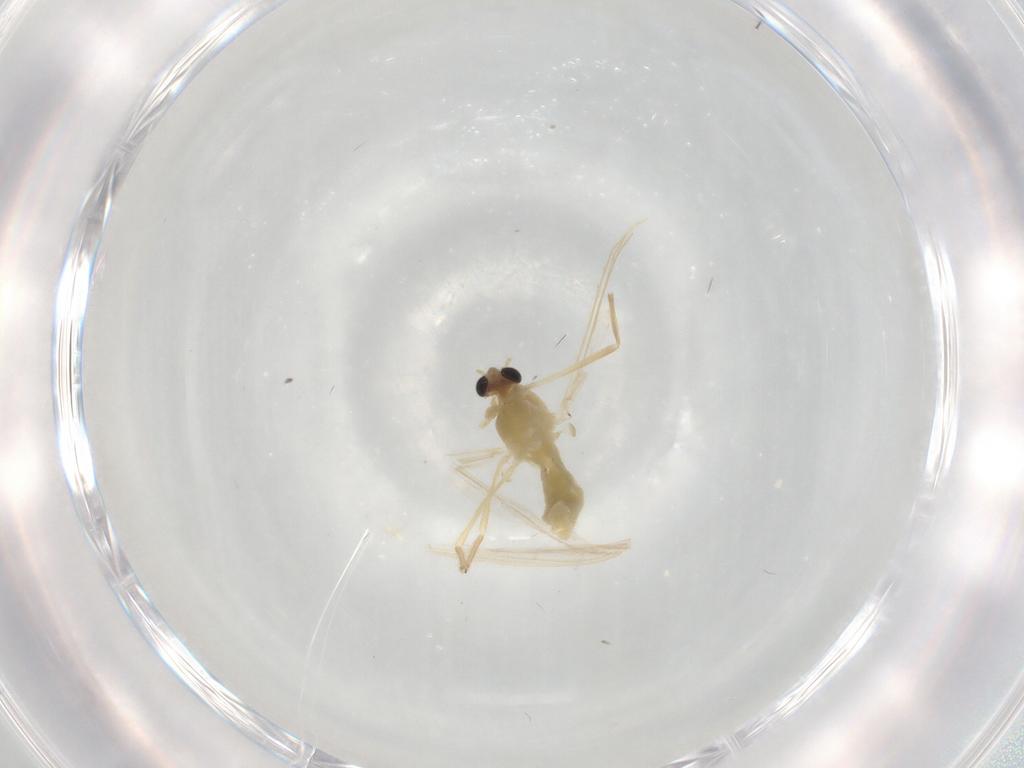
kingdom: Animalia
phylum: Arthropoda
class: Insecta
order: Diptera
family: Chironomidae
